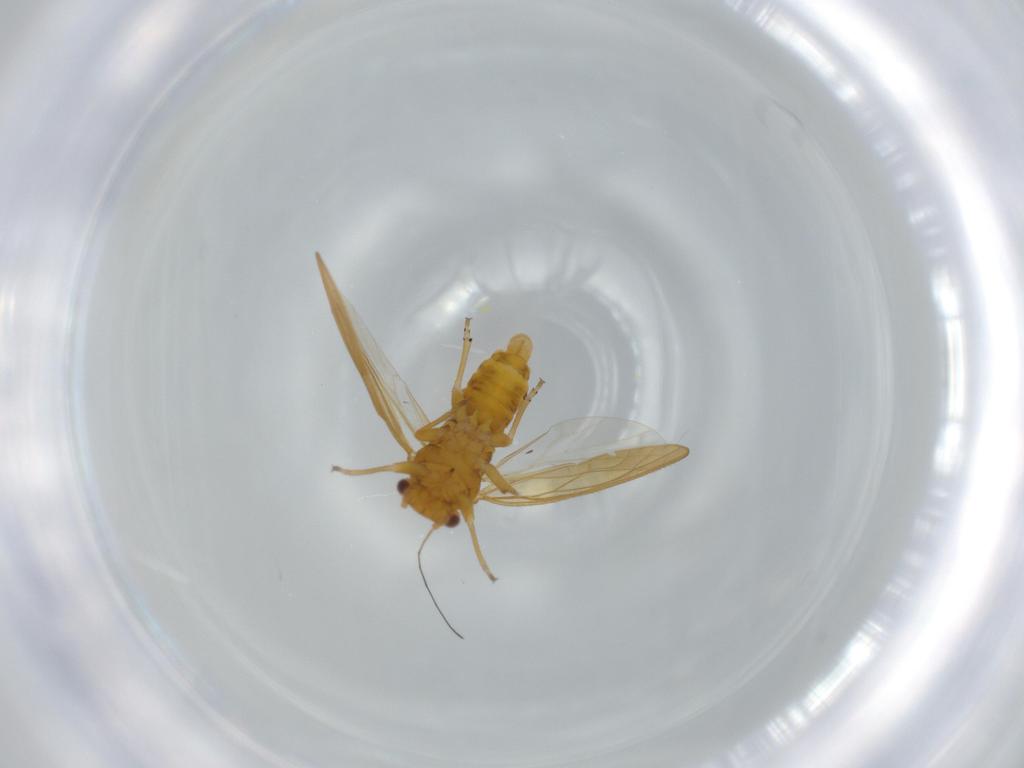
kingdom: Animalia
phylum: Arthropoda
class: Insecta
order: Hemiptera
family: Psyllidae
